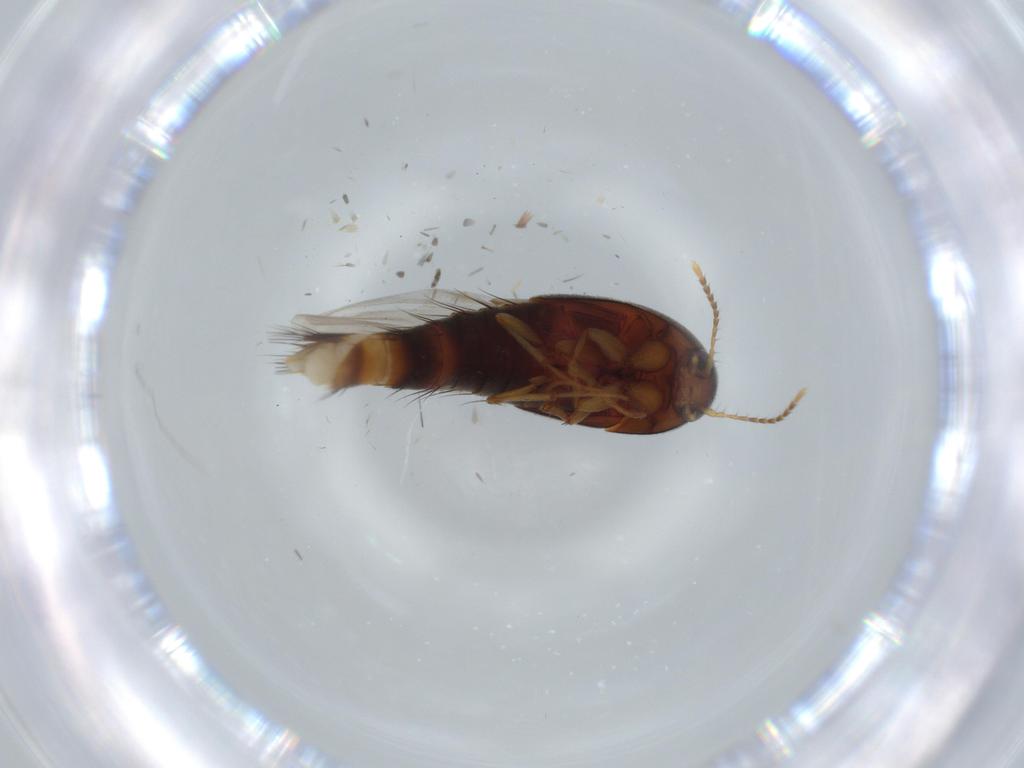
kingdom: Animalia
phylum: Arthropoda
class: Insecta
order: Coleoptera
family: Staphylinidae
